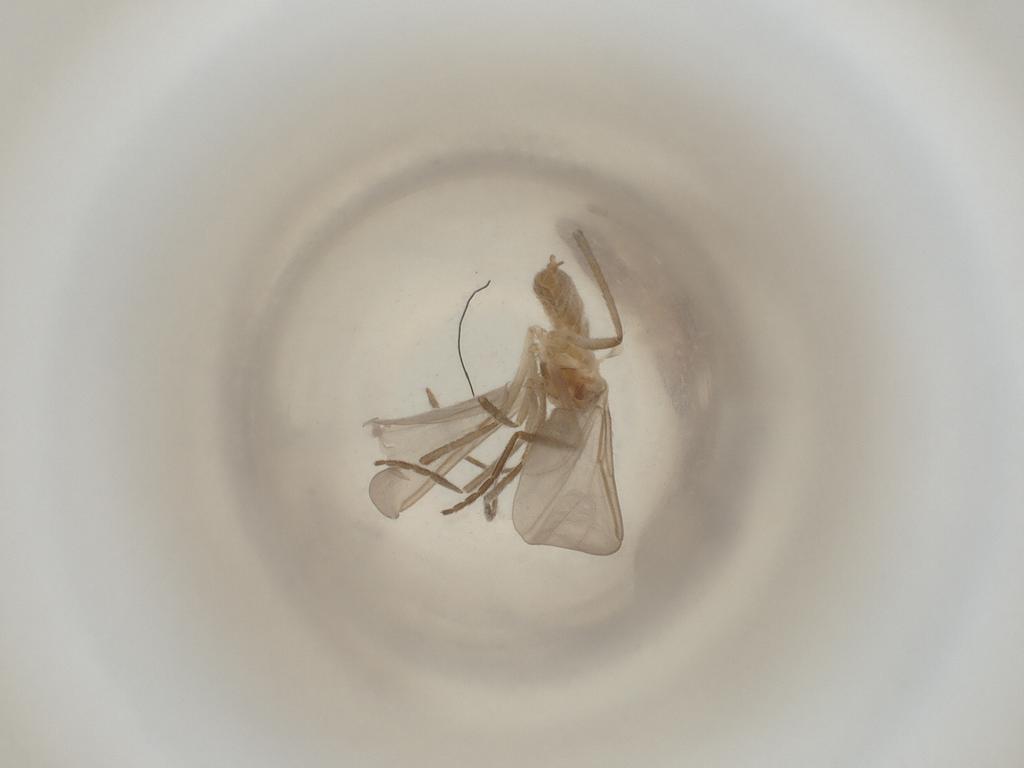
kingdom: Animalia
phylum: Arthropoda
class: Insecta
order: Diptera
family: Cecidomyiidae
